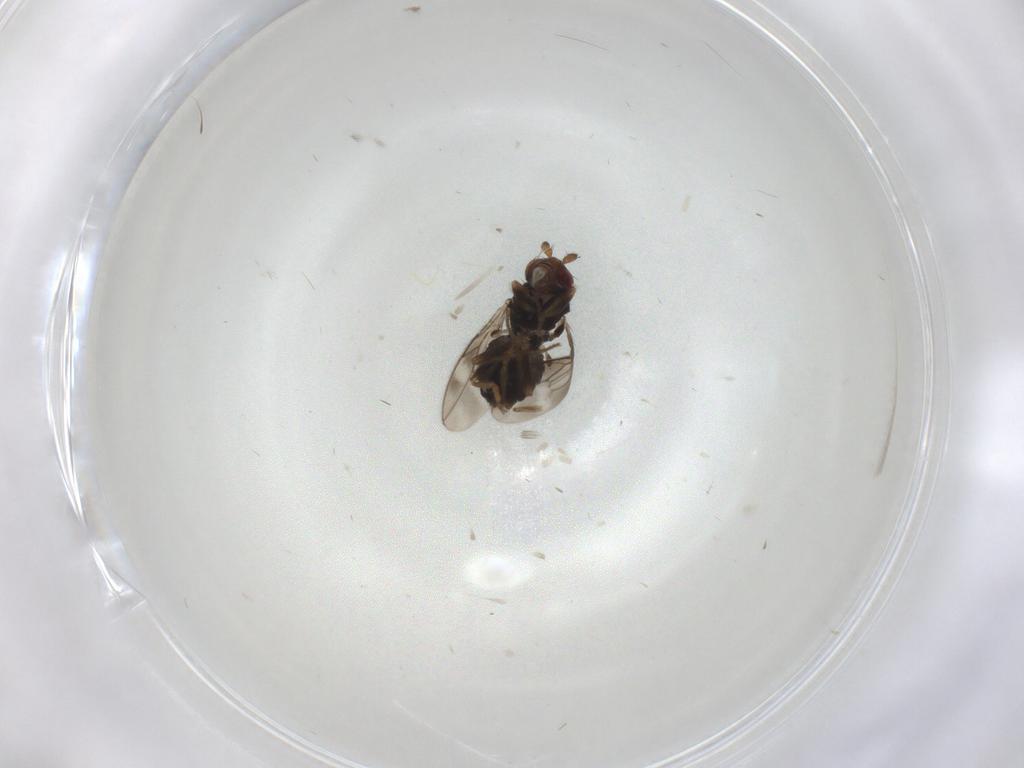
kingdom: Animalia
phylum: Arthropoda
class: Insecta
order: Diptera
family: Sphaeroceridae
